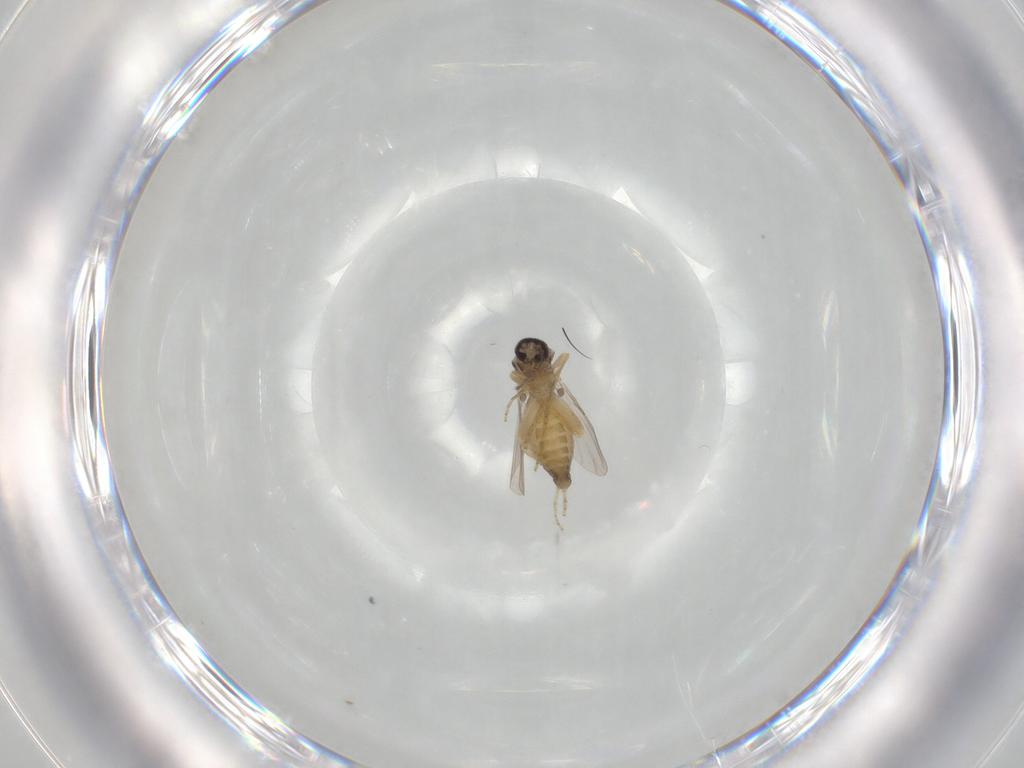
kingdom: Animalia
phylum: Arthropoda
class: Insecta
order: Diptera
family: Ceratopogonidae
